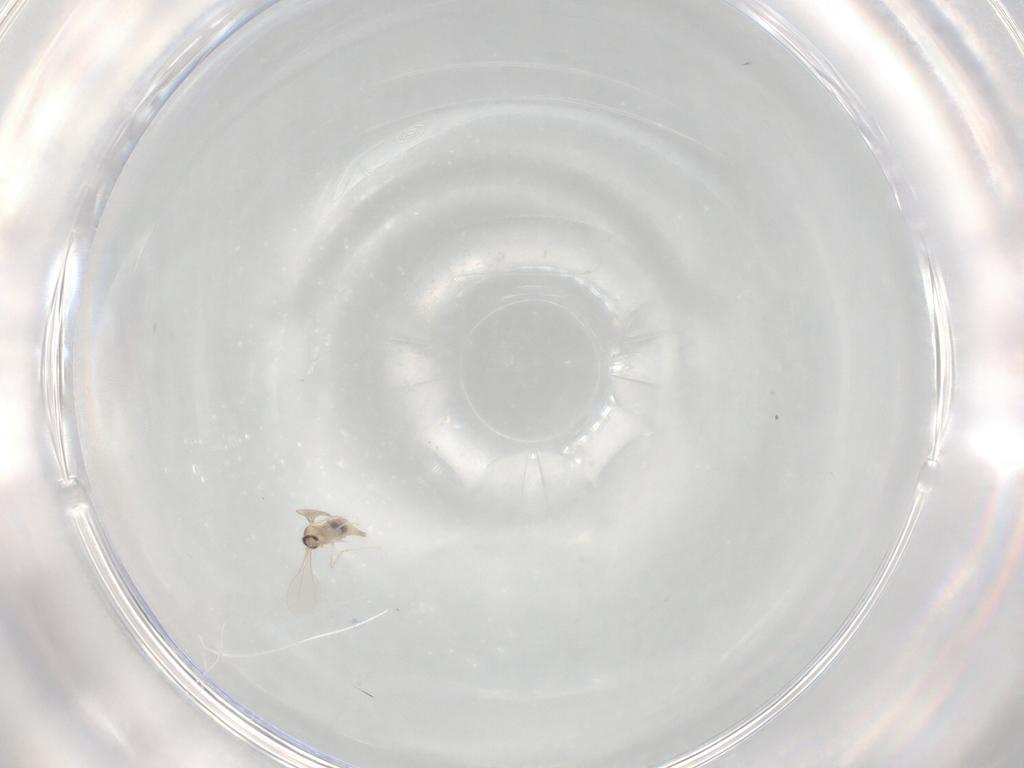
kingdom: Animalia
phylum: Arthropoda
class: Insecta
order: Diptera
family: Cecidomyiidae
